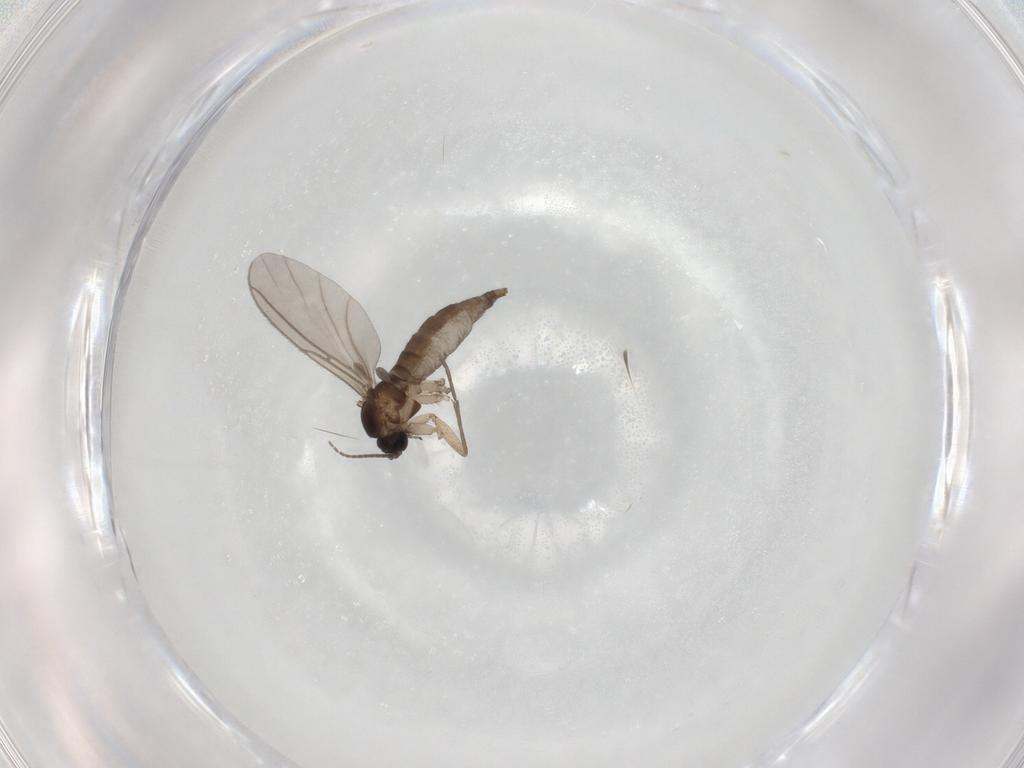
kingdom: Animalia
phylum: Arthropoda
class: Insecta
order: Diptera
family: Sciaridae
